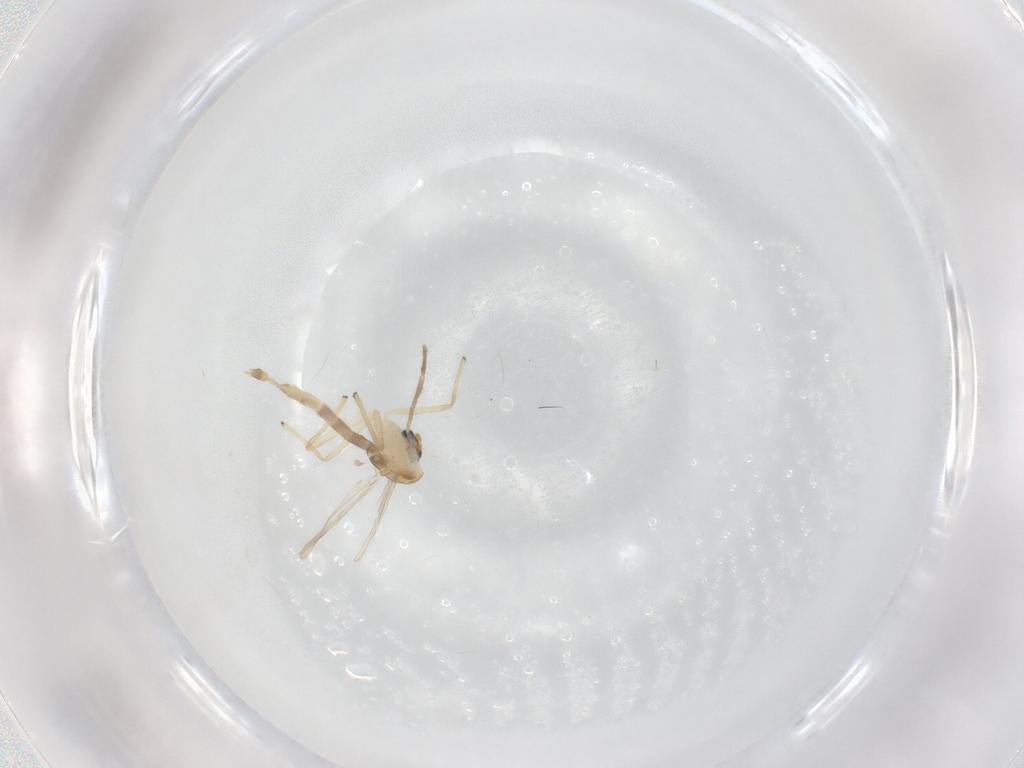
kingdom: Animalia
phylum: Arthropoda
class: Insecta
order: Diptera
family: Chironomidae
